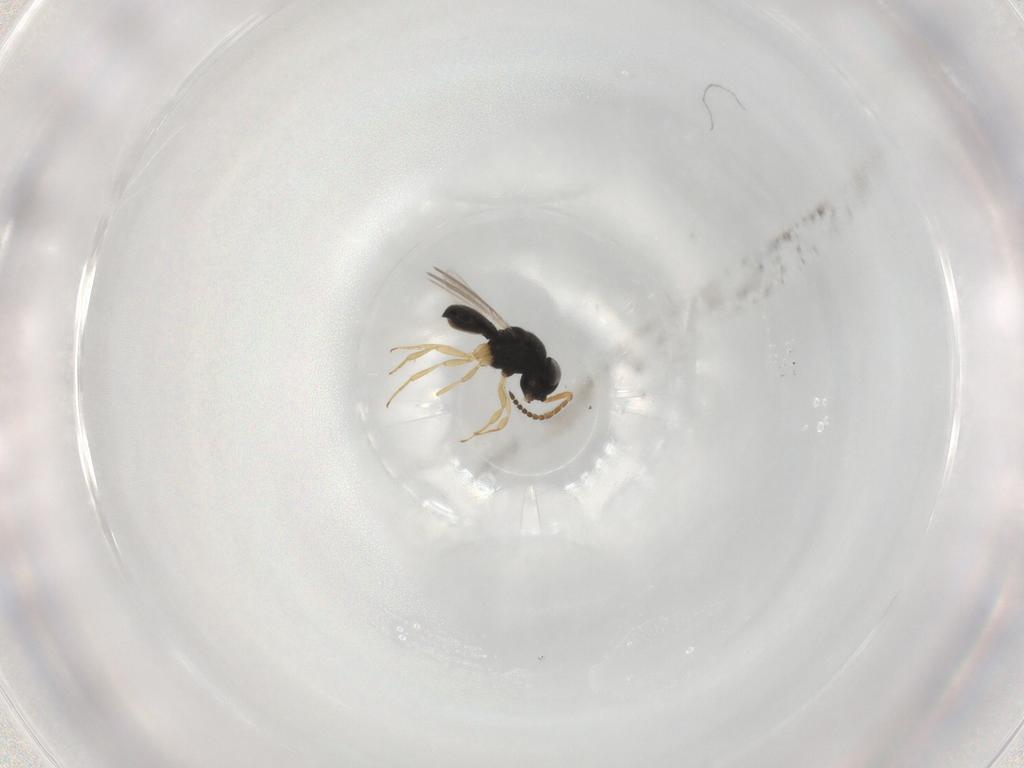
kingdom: Animalia
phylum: Arthropoda
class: Insecta
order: Hymenoptera
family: Scelionidae
